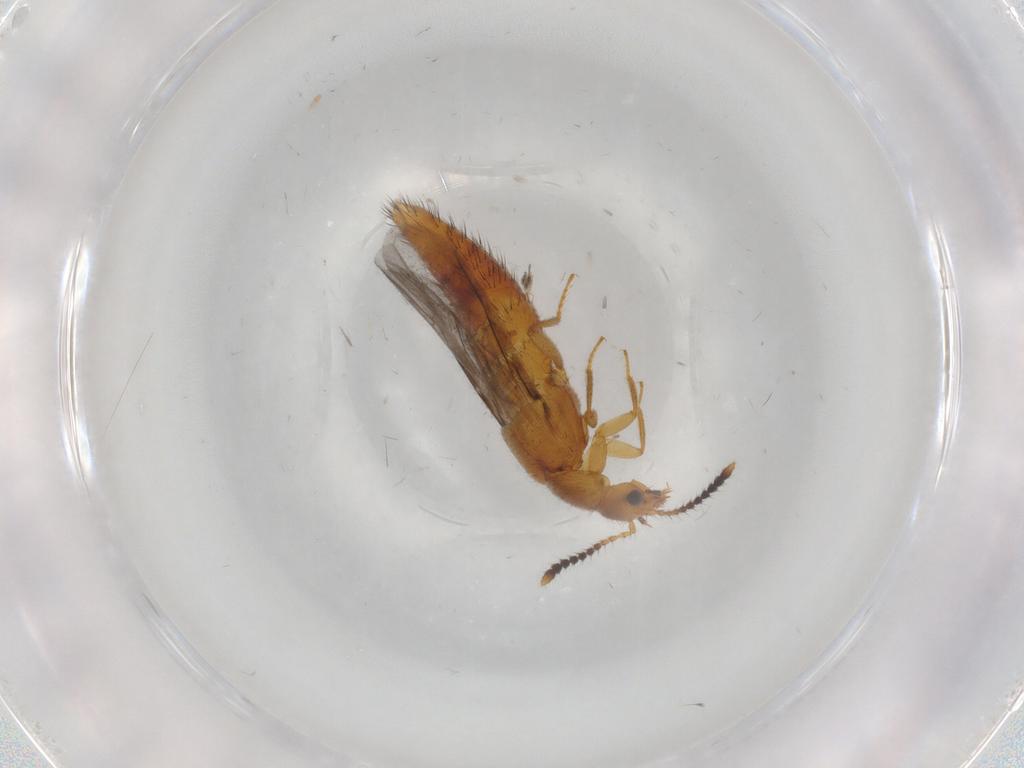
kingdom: Animalia
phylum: Arthropoda
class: Insecta
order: Coleoptera
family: Staphylinidae
